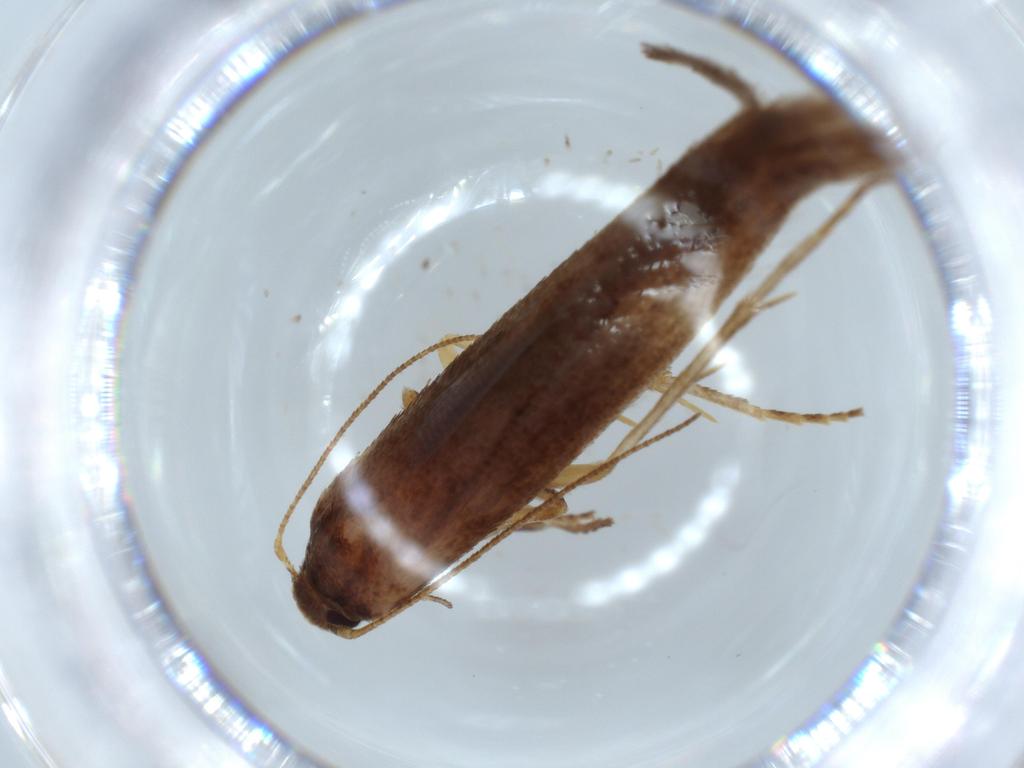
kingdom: Animalia
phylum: Arthropoda
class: Insecta
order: Lepidoptera
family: Stathmopodidae
